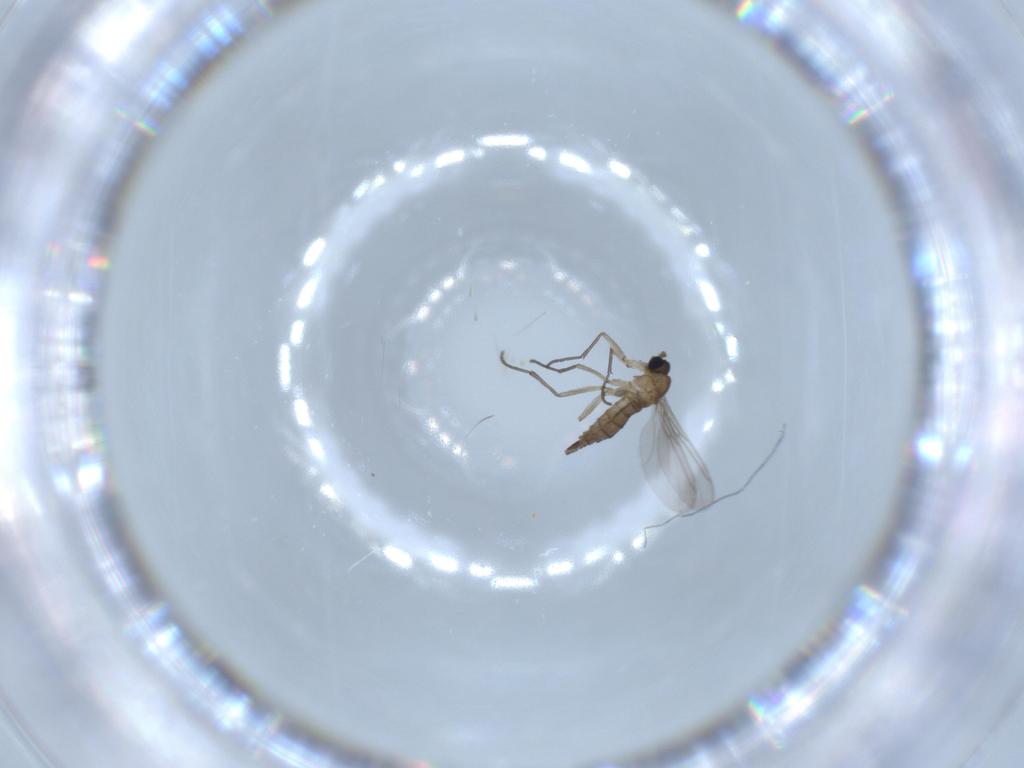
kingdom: Animalia
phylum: Arthropoda
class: Insecta
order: Diptera
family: Sciaridae
